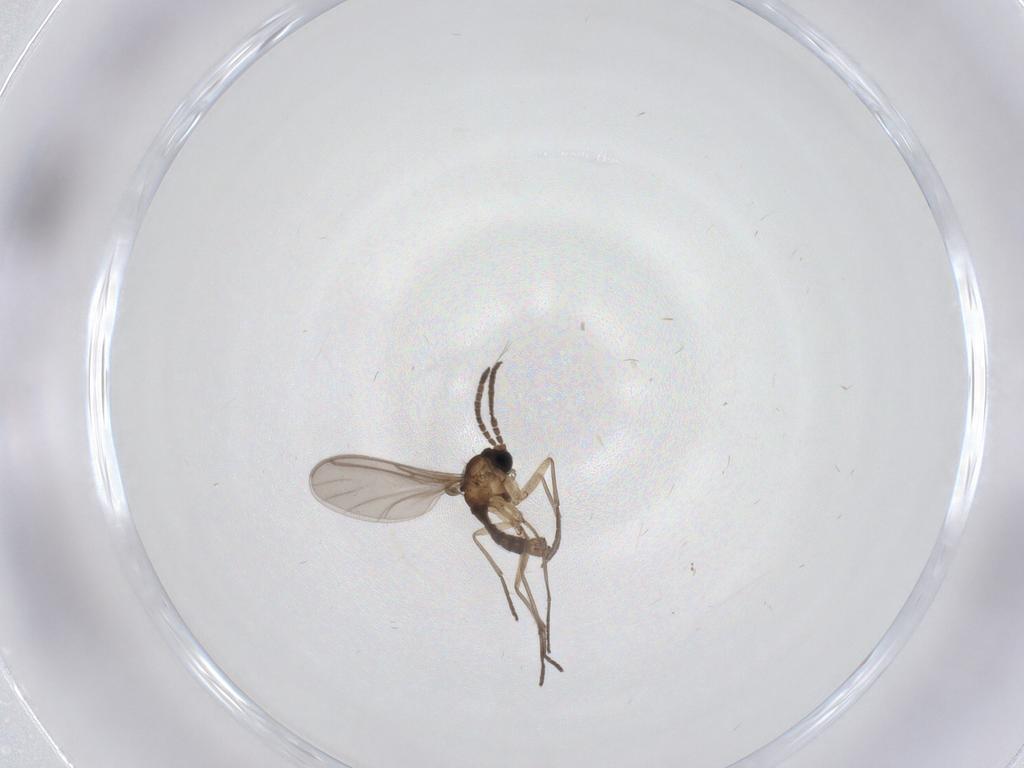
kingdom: Animalia
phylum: Arthropoda
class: Insecta
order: Diptera
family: Sciaridae
